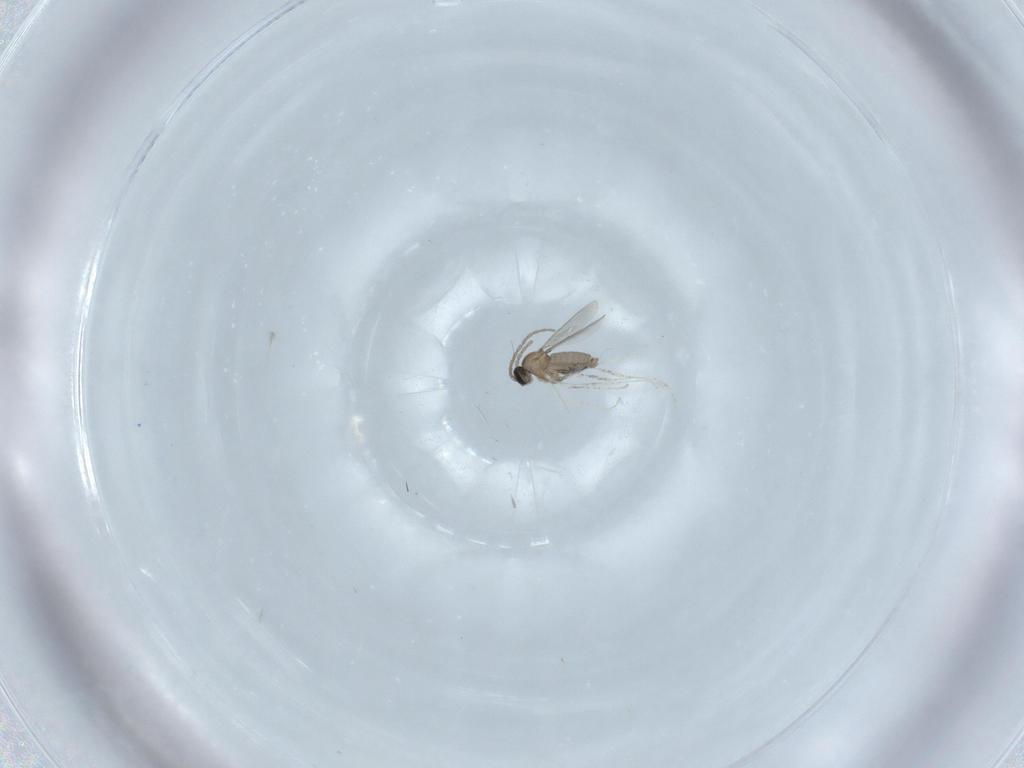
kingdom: Animalia
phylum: Arthropoda
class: Insecta
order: Diptera
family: Cecidomyiidae
